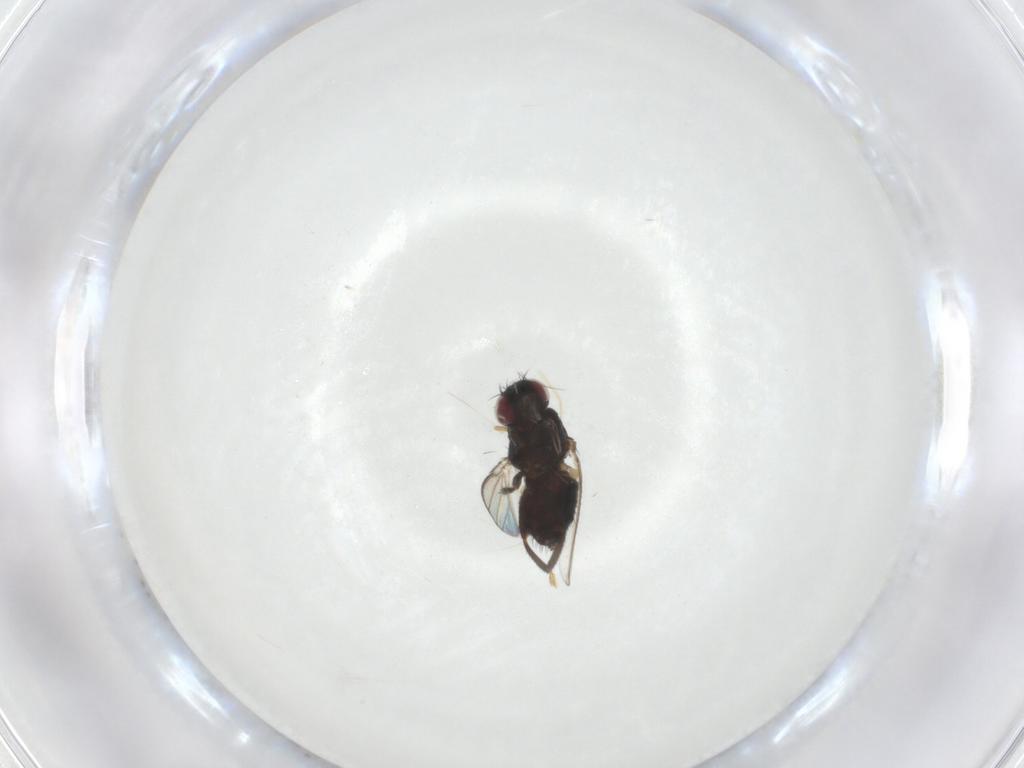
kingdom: Animalia
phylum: Arthropoda
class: Insecta
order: Diptera
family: Milichiidae
